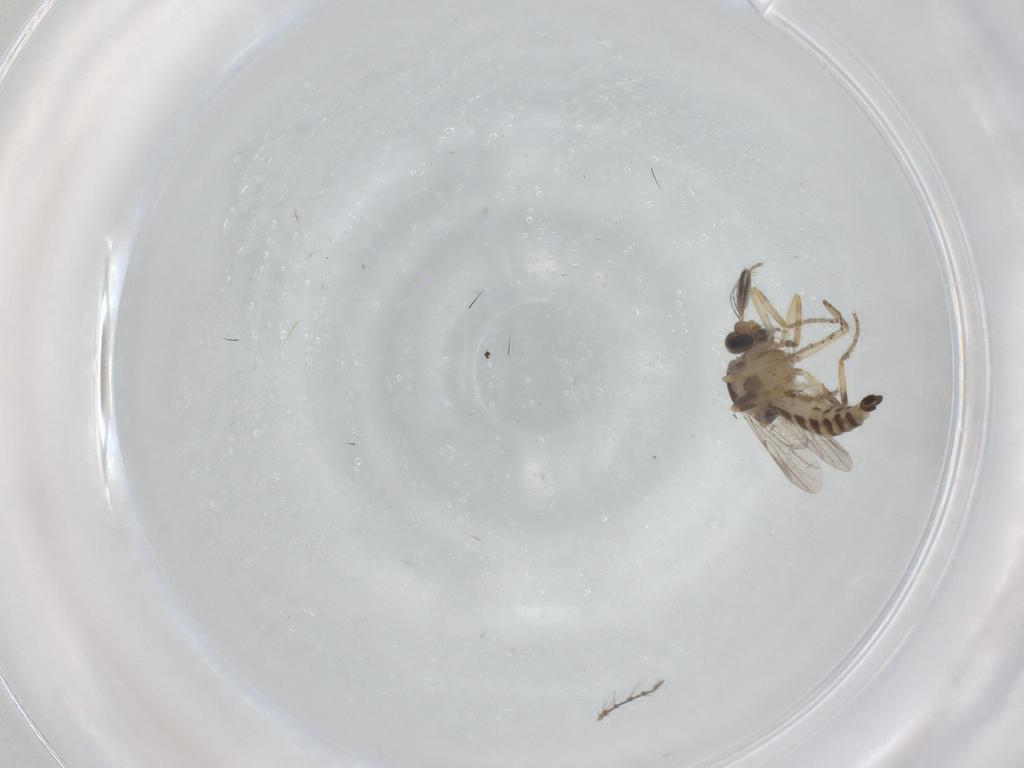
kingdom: Animalia
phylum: Arthropoda
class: Insecta
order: Diptera
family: Ceratopogonidae
